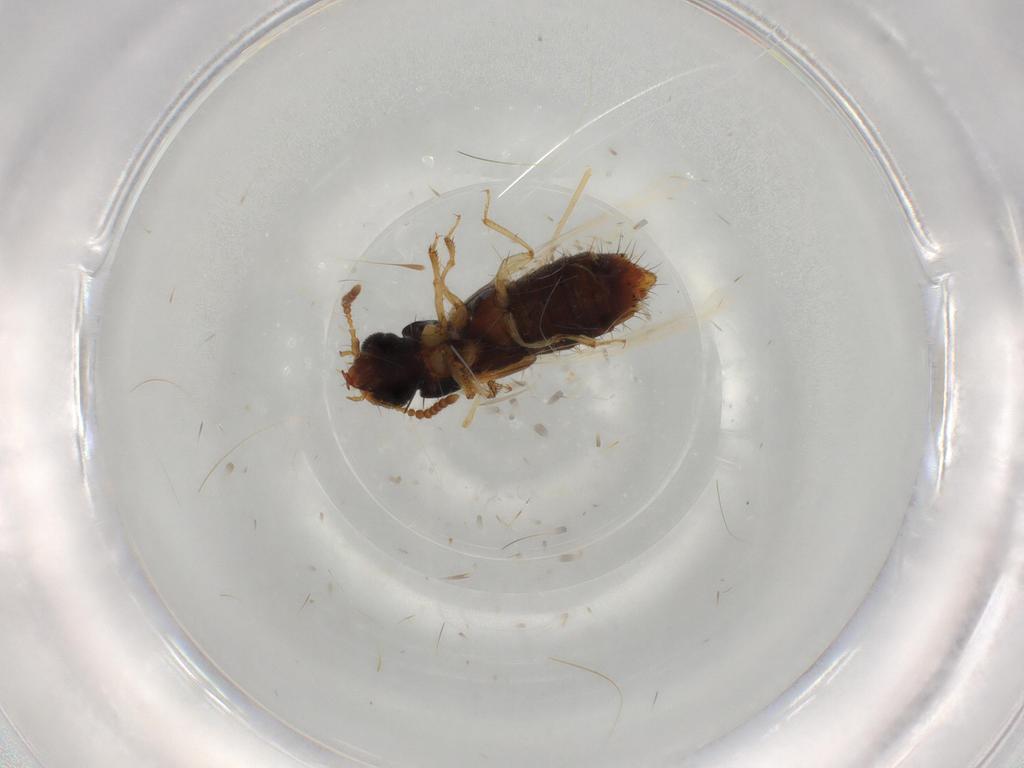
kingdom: Animalia
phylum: Arthropoda
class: Insecta
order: Coleoptera
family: Staphylinidae
